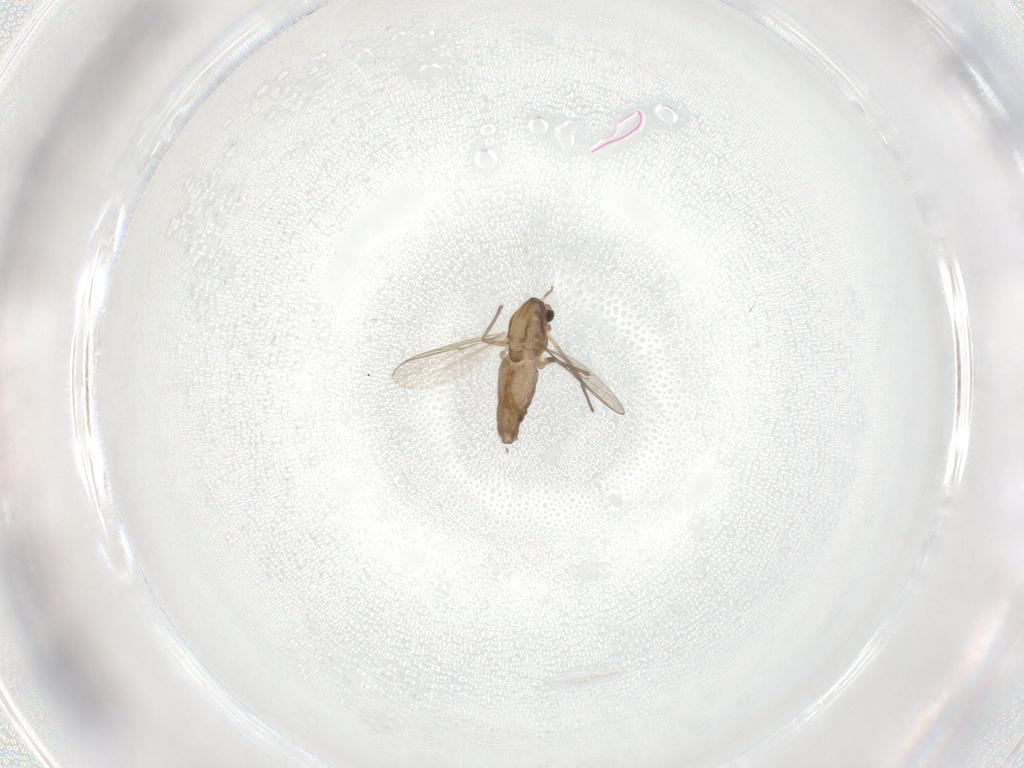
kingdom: Animalia
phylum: Arthropoda
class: Insecta
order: Diptera
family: Chironomidae
